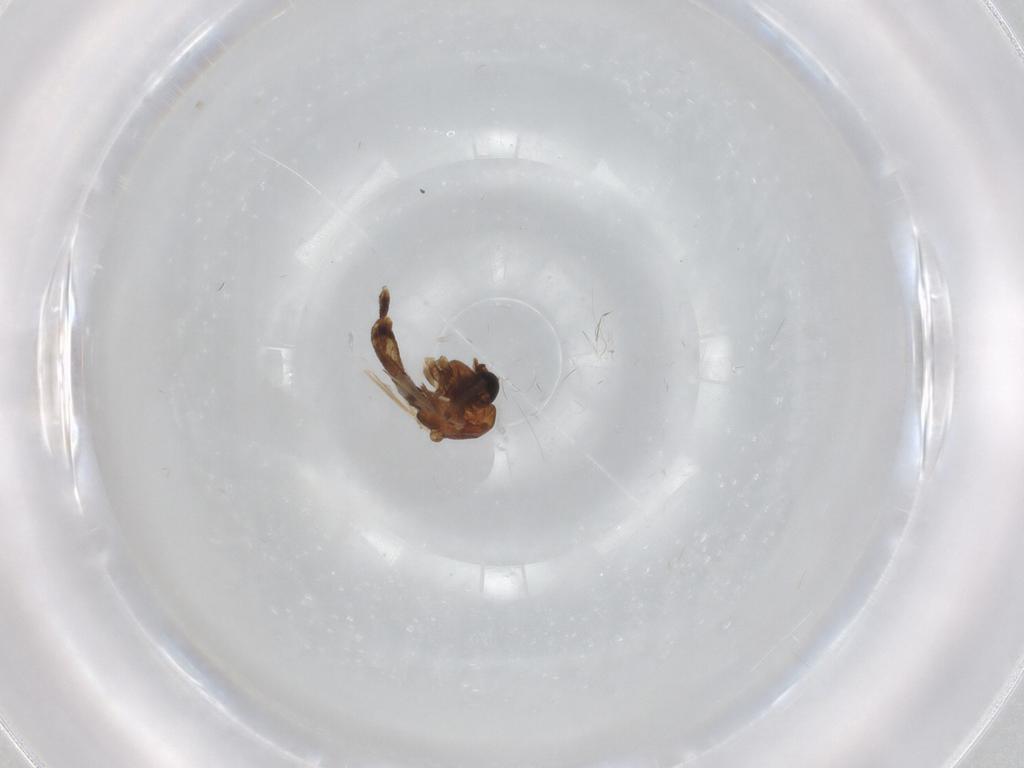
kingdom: Animalia
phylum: Arthropoda
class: Insecta
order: Diptera
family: Chironomidae
